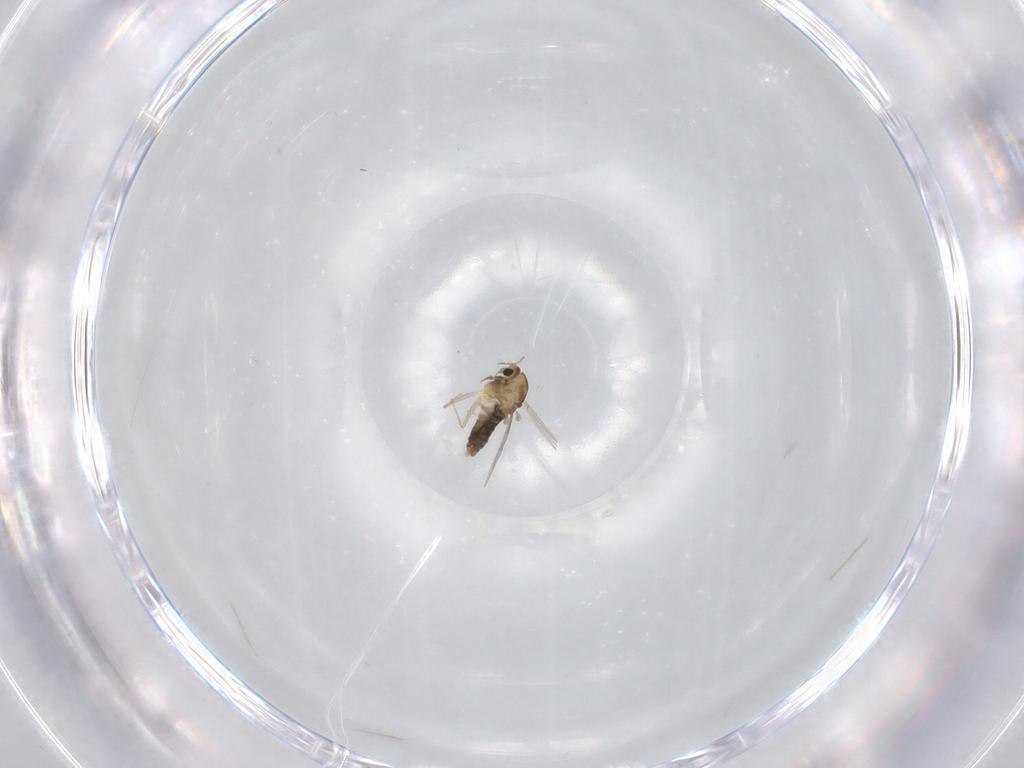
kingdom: Animalia
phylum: Arthropoda
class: Insecta
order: Diptera
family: Chironomidae
